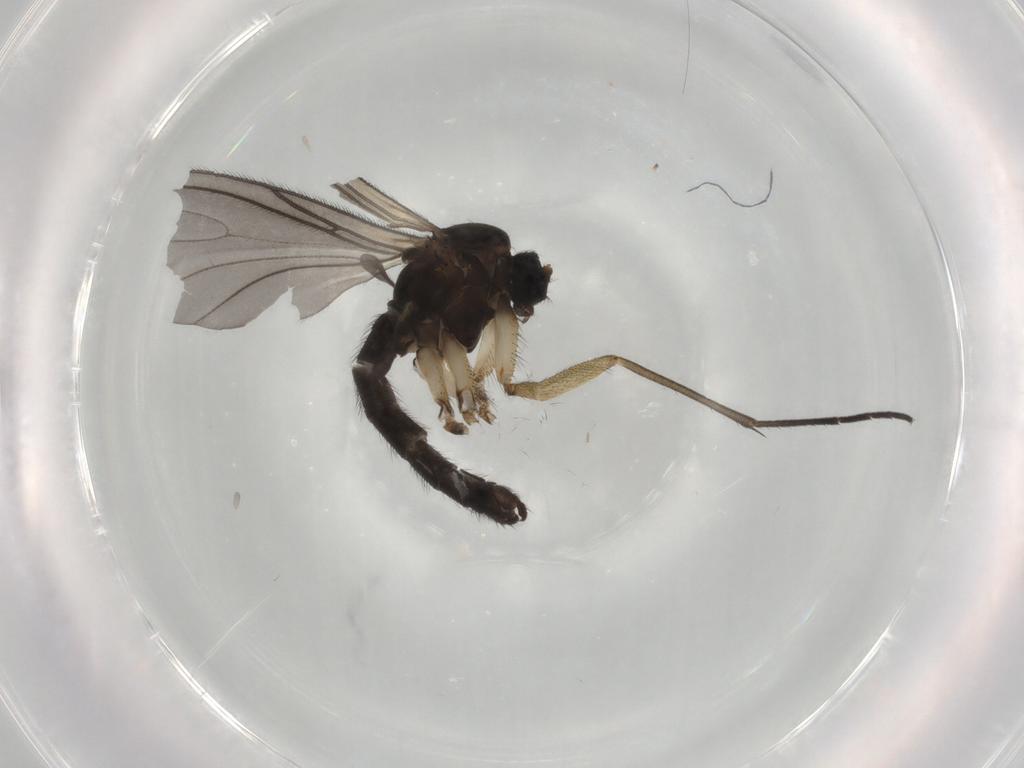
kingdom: Animalia
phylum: Arthropoda
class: Insecta
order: Diptera
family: Sciaridae
